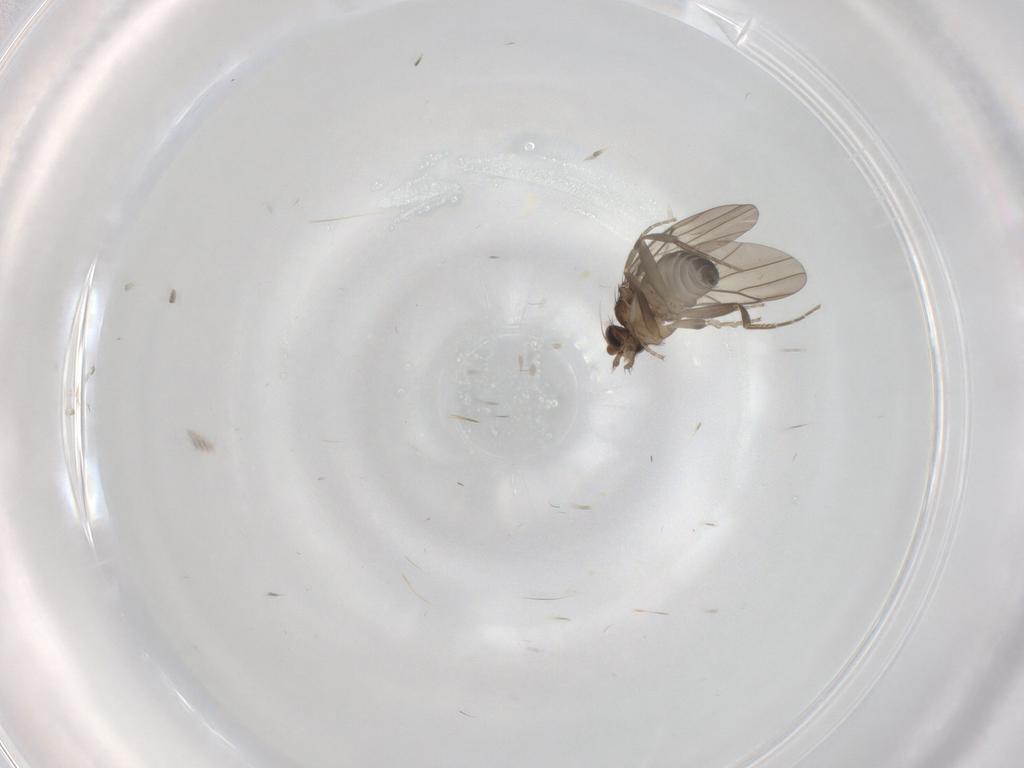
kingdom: Animalia
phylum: Arthropoda
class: Insecta
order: Diptera
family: Phoridae
